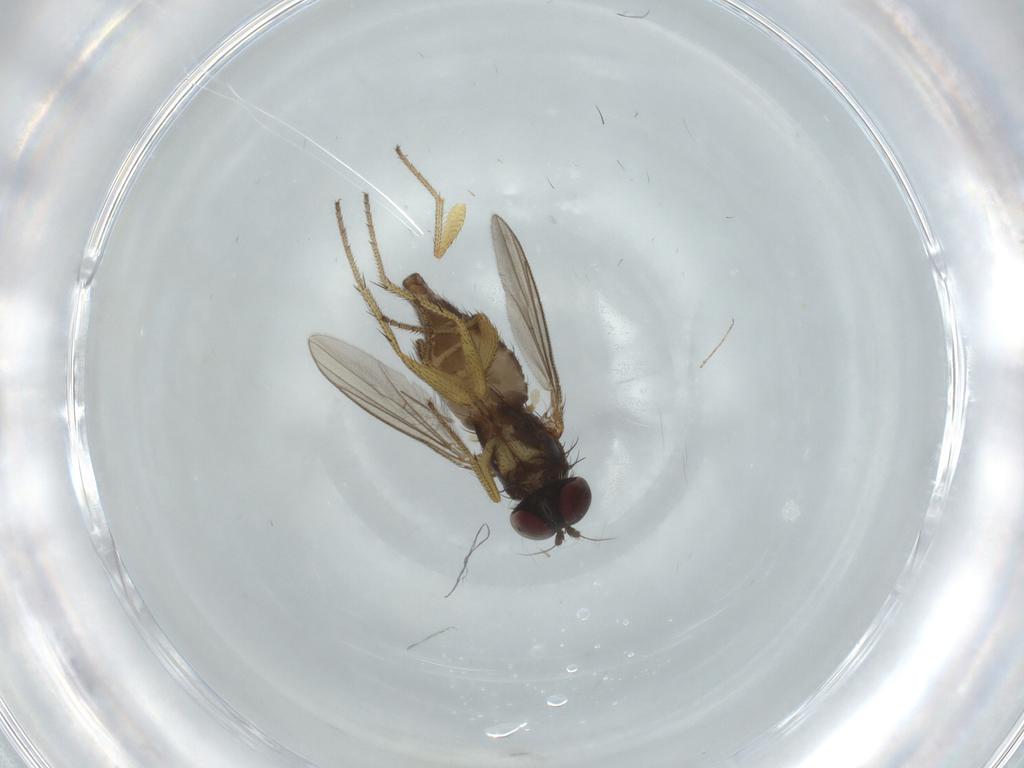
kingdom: Animalia
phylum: Arthropoda
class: Insecta
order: Diptera
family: Dolichopodidae
